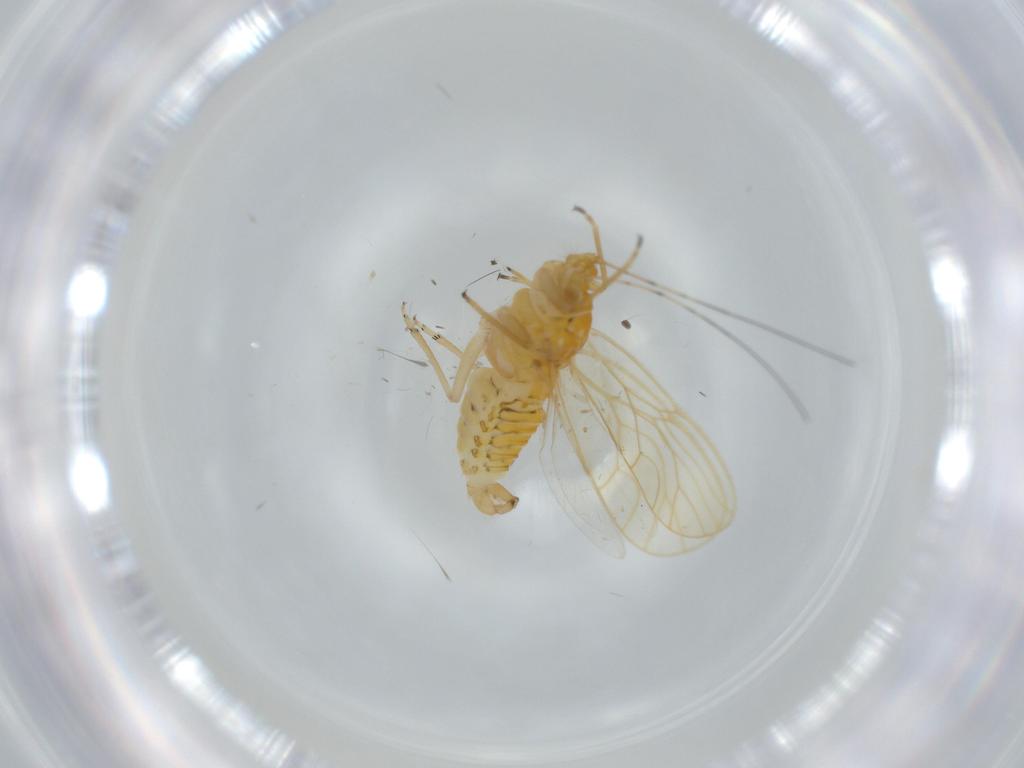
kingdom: Animalia
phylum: Arthropoda
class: Insecta
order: Hemiptera
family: Psyllidae
